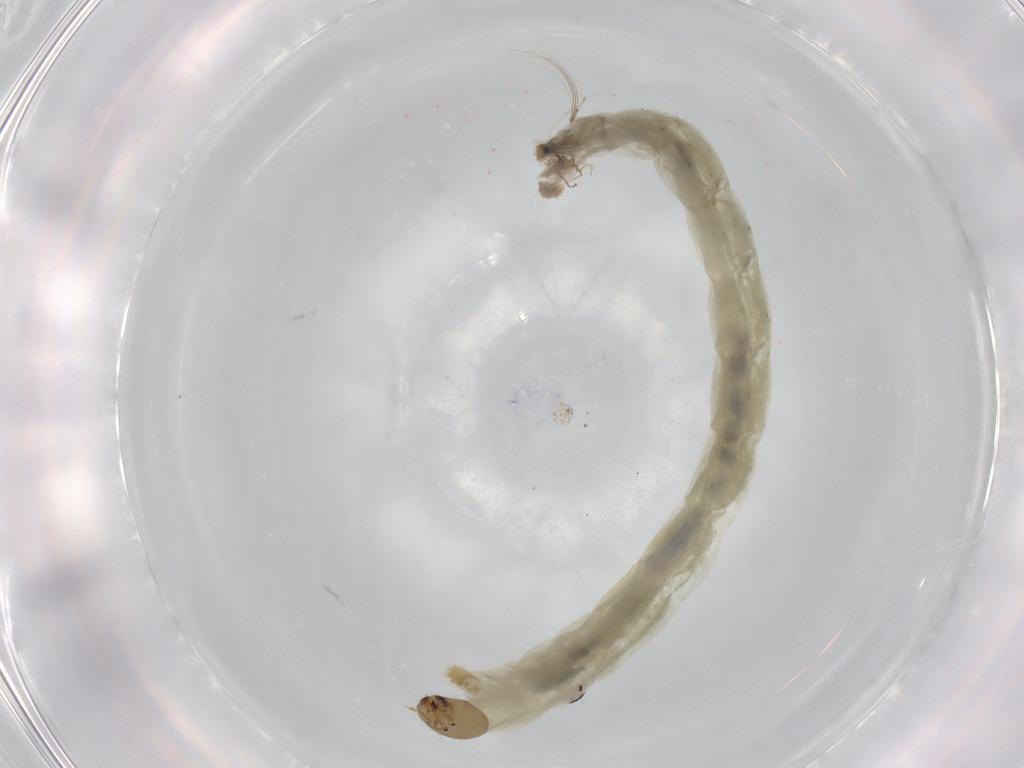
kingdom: Animalia
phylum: Arthropoda
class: Insecta
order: Diptera
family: Chironomidae
